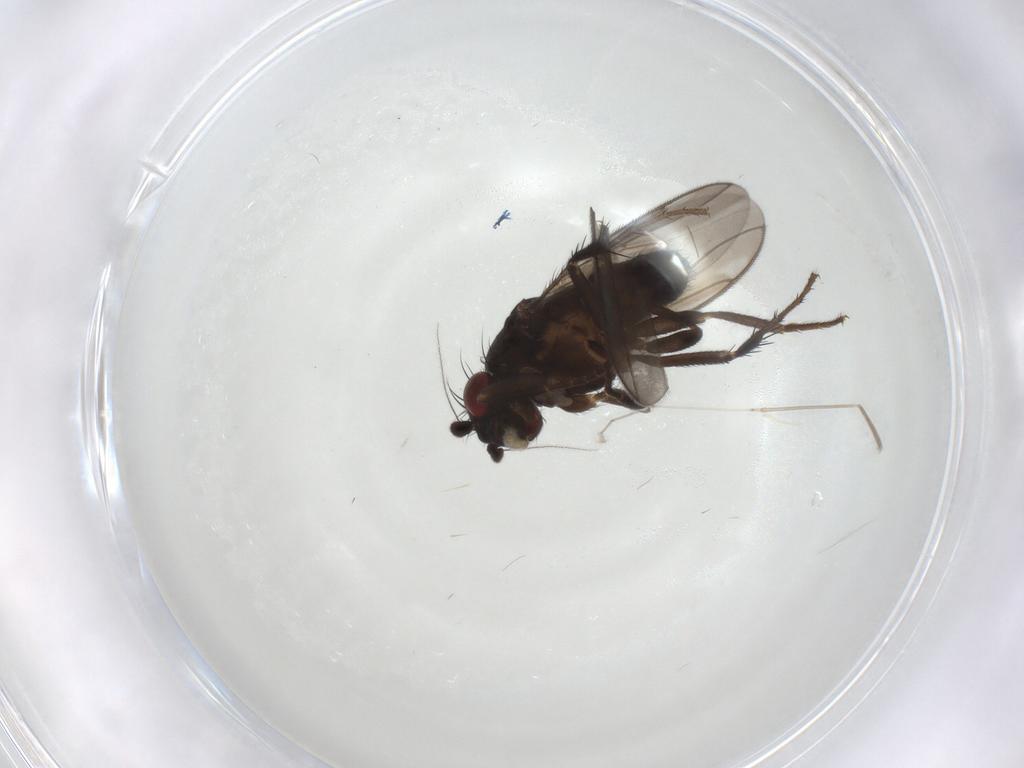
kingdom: Animalia
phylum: Arthropoda
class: Insecta
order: Diptera
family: Sphaeroceridae
